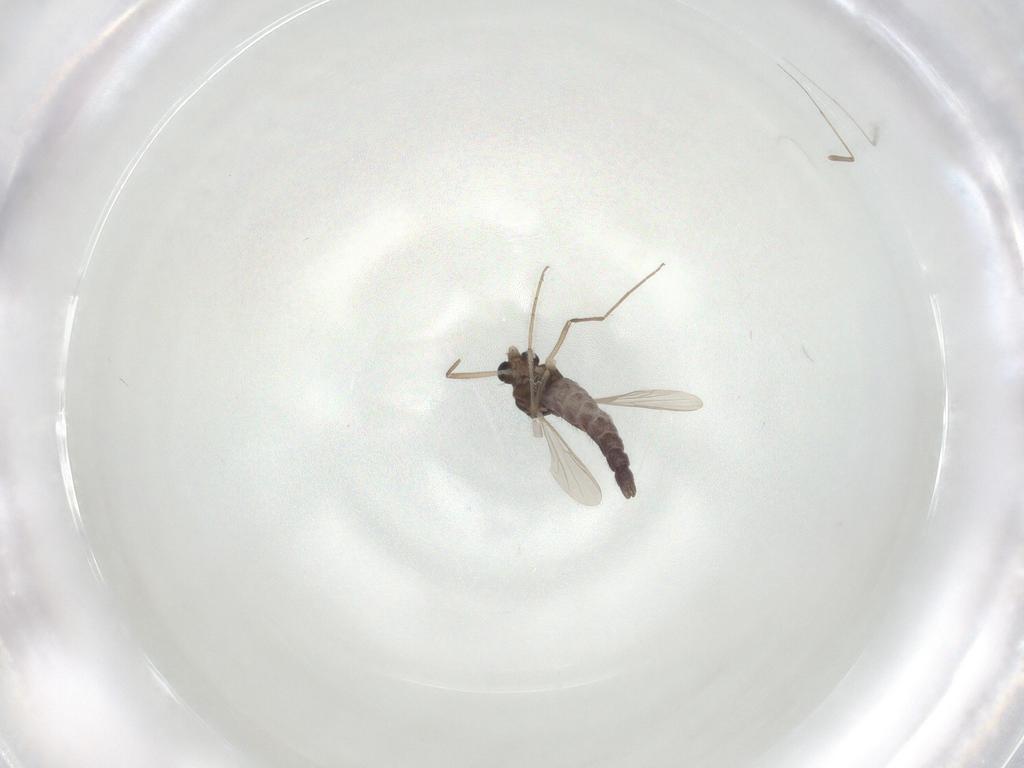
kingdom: Animalia
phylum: Arthropoda
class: Insecta
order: Diptera
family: Chironomidae
